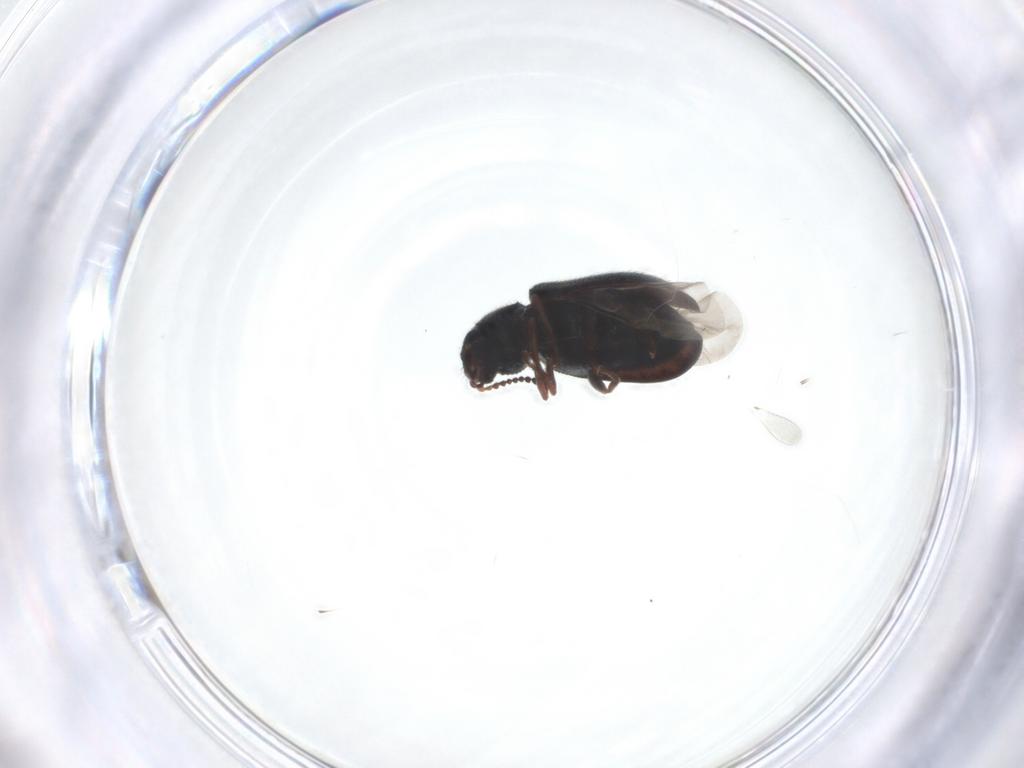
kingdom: Animalia
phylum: Arthropoda
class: Insecta
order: Coleoptera
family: Melyridae
